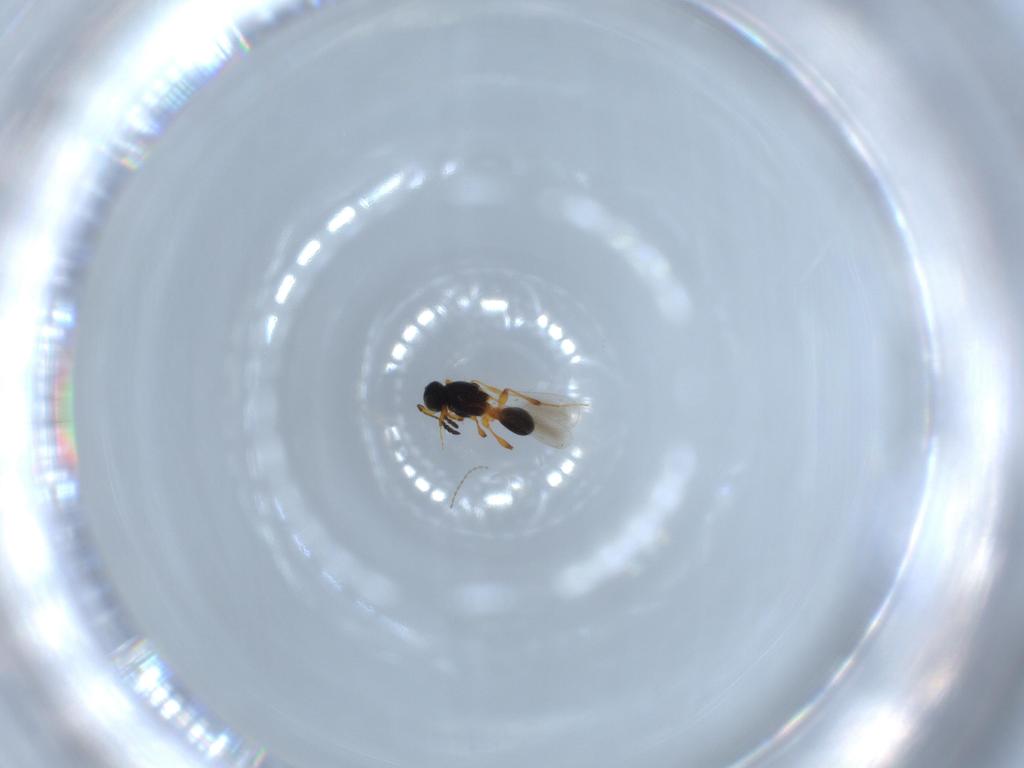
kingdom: Animalia
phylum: Arthropoda
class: Insecta
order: Hymenoptera
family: Platygastridae
